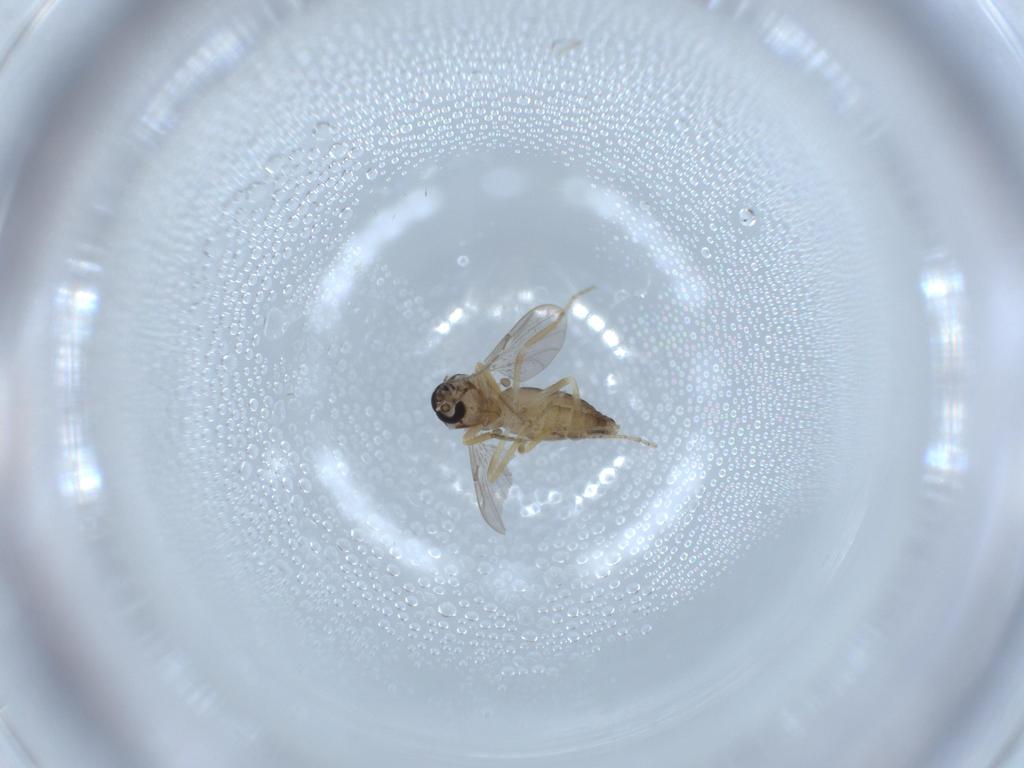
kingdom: Animalia
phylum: Arthropoda
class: Insecta
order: Diptera
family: Ceratopogonidae
